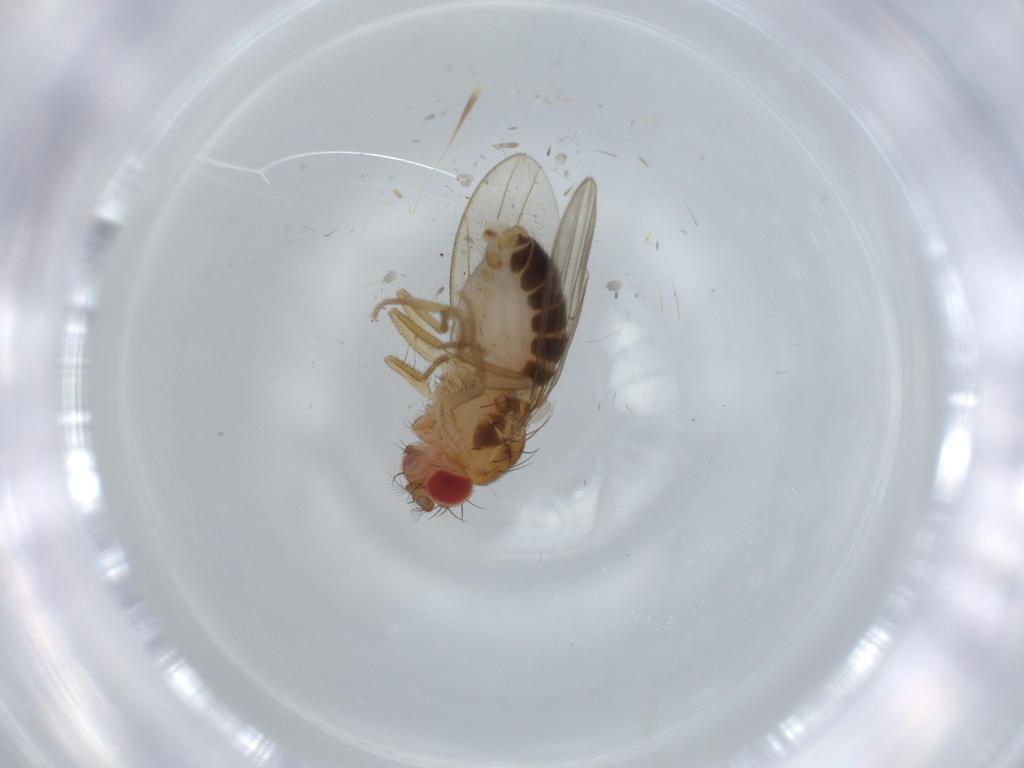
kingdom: Animalia
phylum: Arthropoda
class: Insecta
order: Diptera
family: Drosophilidae
